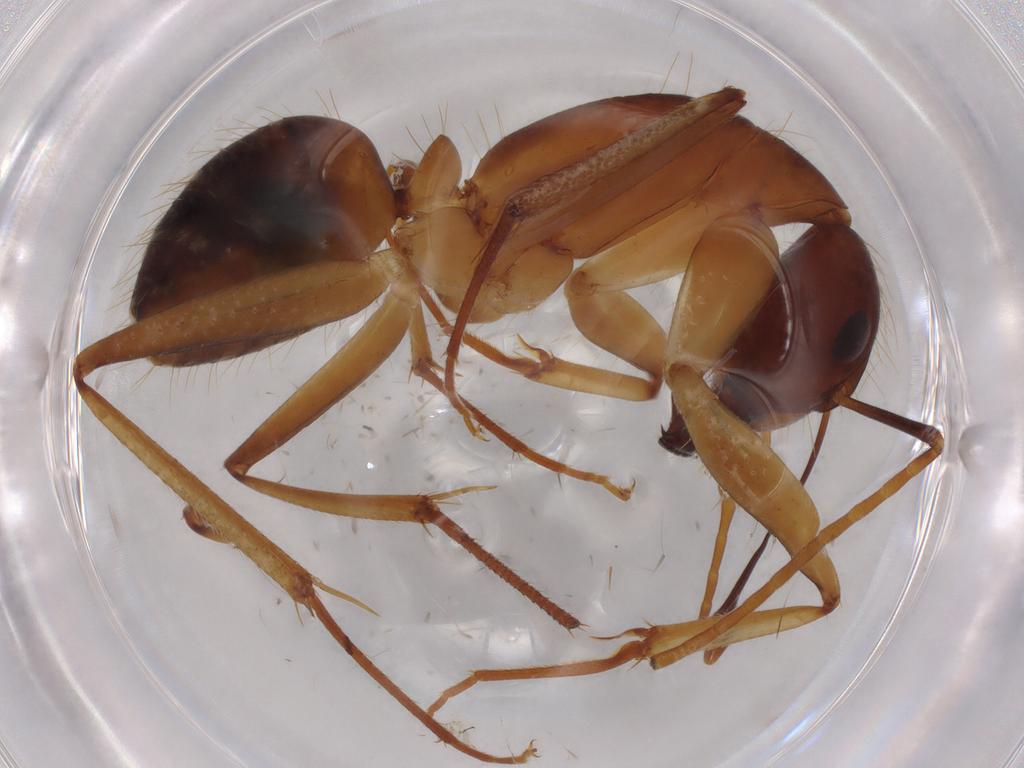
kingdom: Animalia
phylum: Arthropoda
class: Insecta
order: Hymenoptera
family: Formicidae
